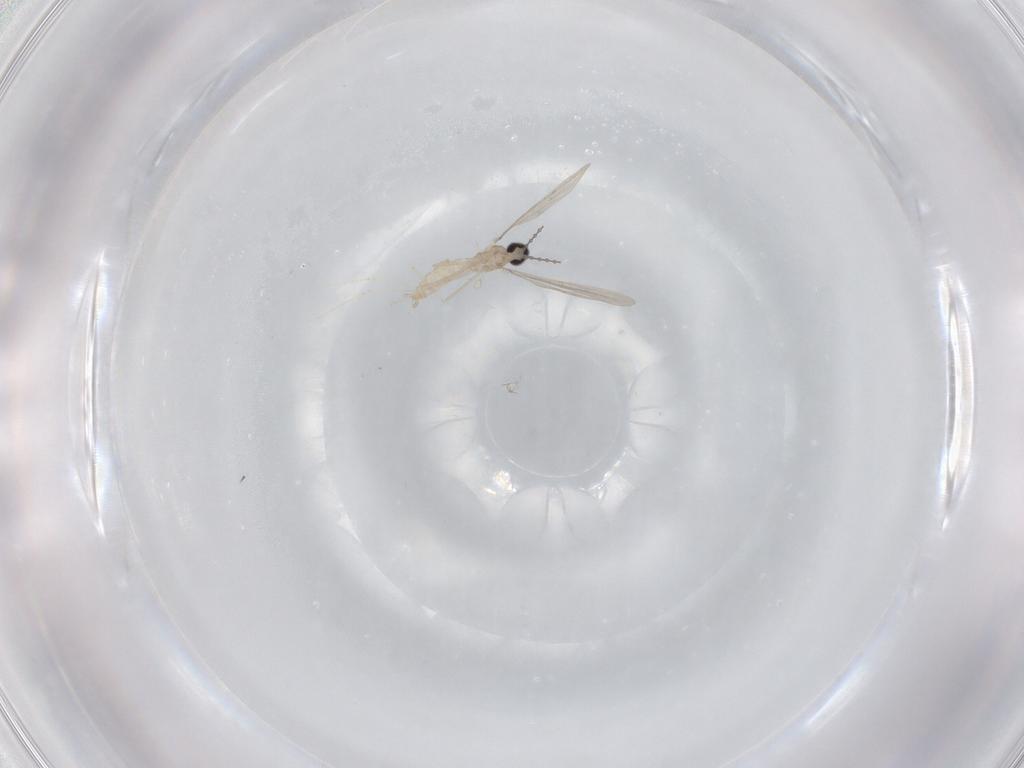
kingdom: Animalia
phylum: Arthropoda
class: Insecta
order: Diptera
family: Cecidomyiidae
